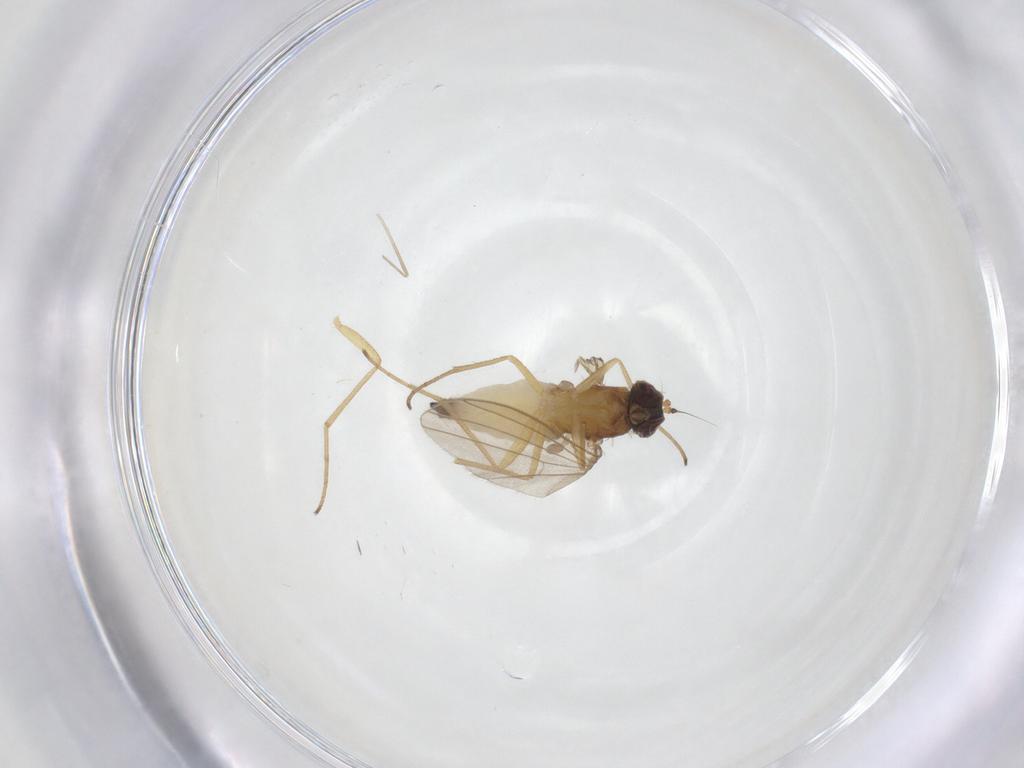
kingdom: Animalia
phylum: Arthropoda
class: Insecta
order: Diptera
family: Dolichopodidae
